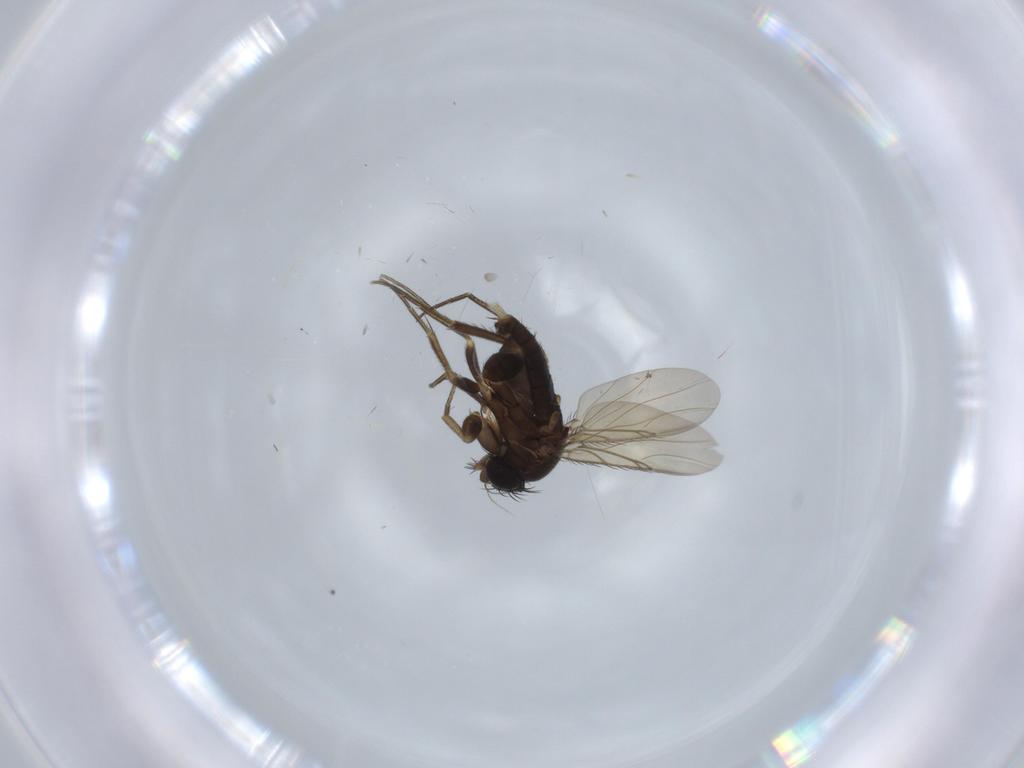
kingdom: Animalia
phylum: Arthropoda
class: Insecta
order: Diptera
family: Phoridae
